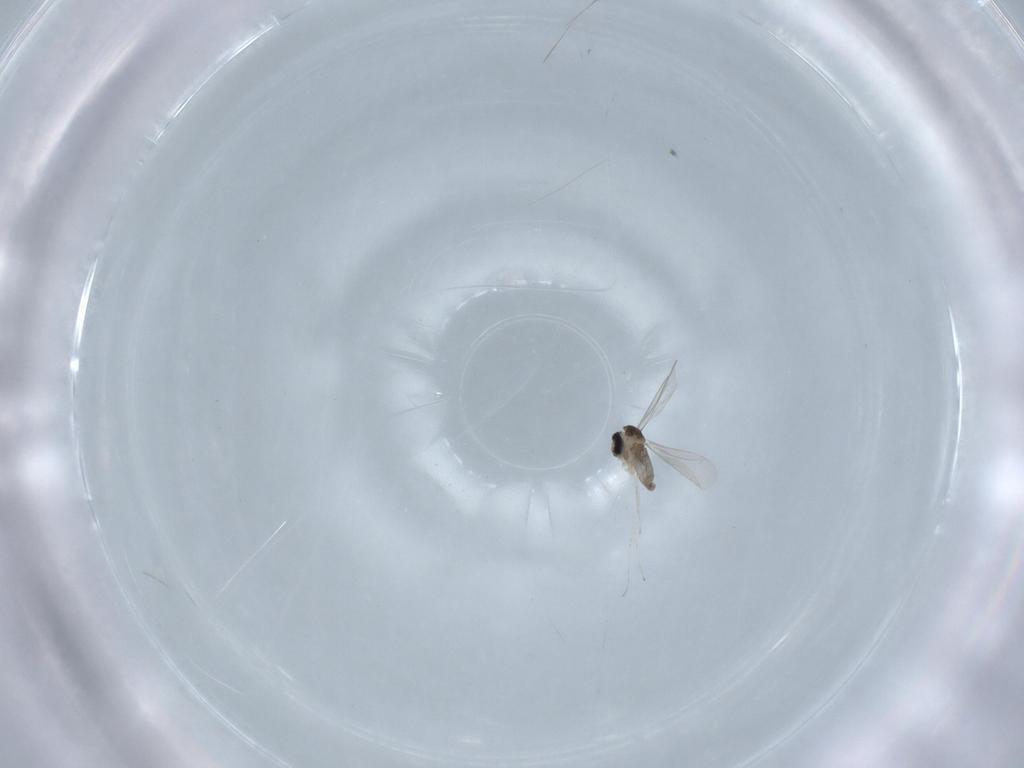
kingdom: Animalia
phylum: Arthropoda
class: Insecta
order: Diptera
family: Cecidomyiidae
